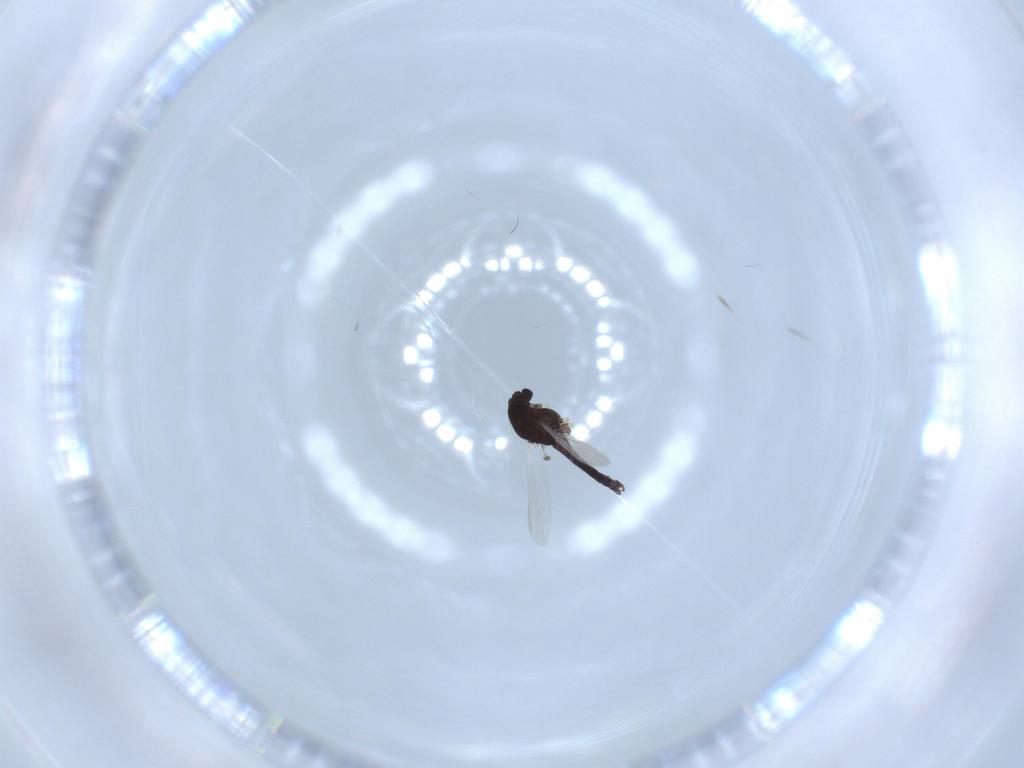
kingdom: Animalia
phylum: Arthropoda
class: Insecta
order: Diptera
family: Chironomidae
